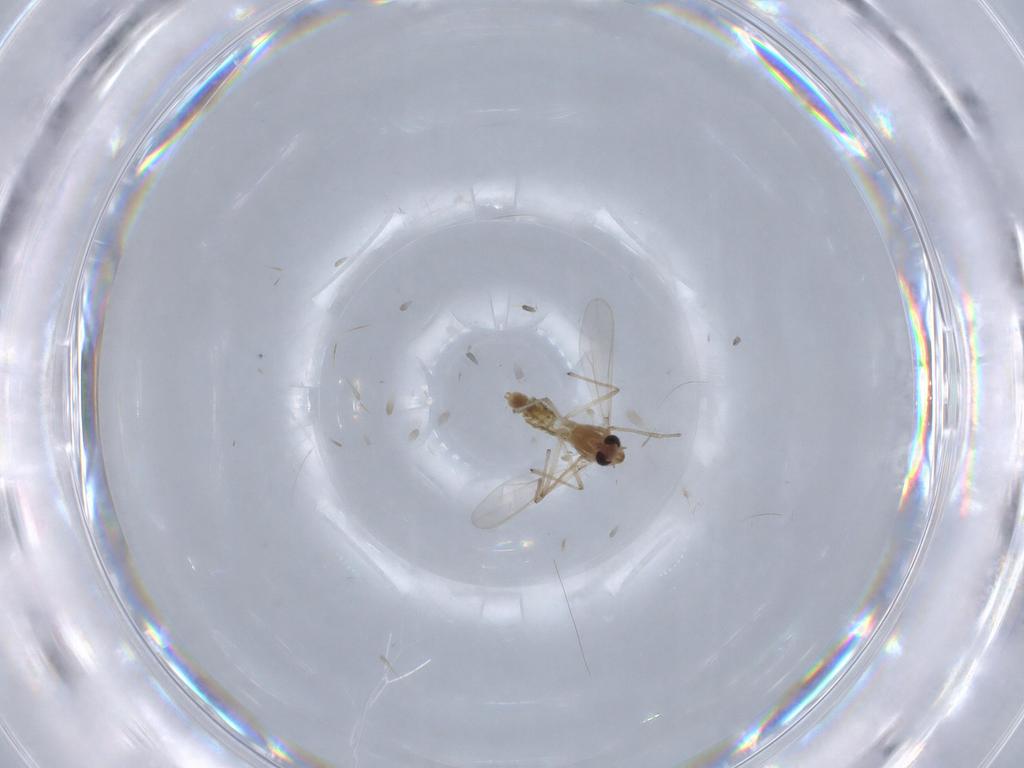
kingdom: Animalia
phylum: Arthropoda
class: Insecta
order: Diptera
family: Chironomidae
